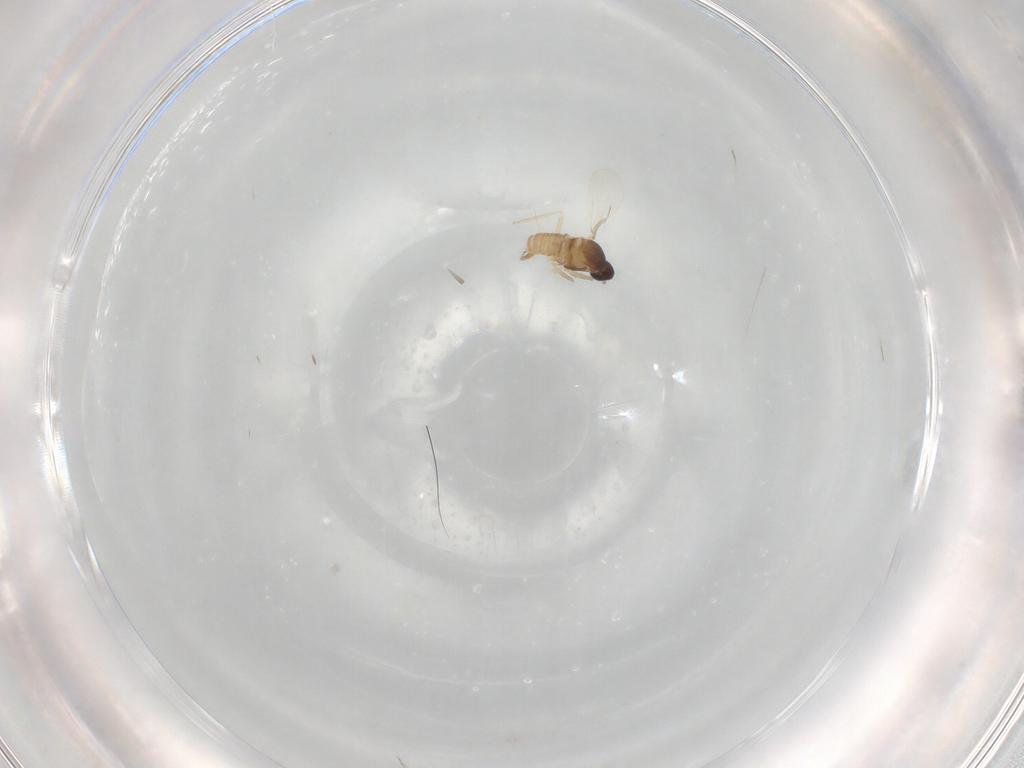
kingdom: Animalia
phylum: Arthropoda
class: Insecta
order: Diptera
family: Cecidomyiidae
